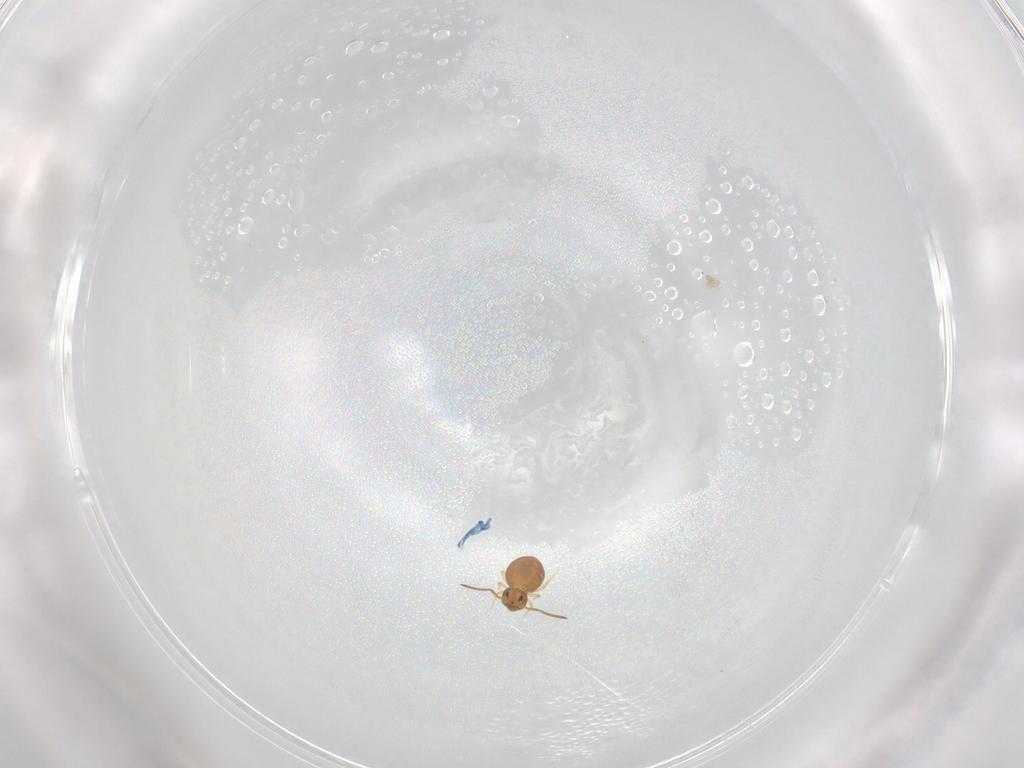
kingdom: Animalia
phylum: Arthropoda
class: Collembola
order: Symphypleona
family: Katiannidae
